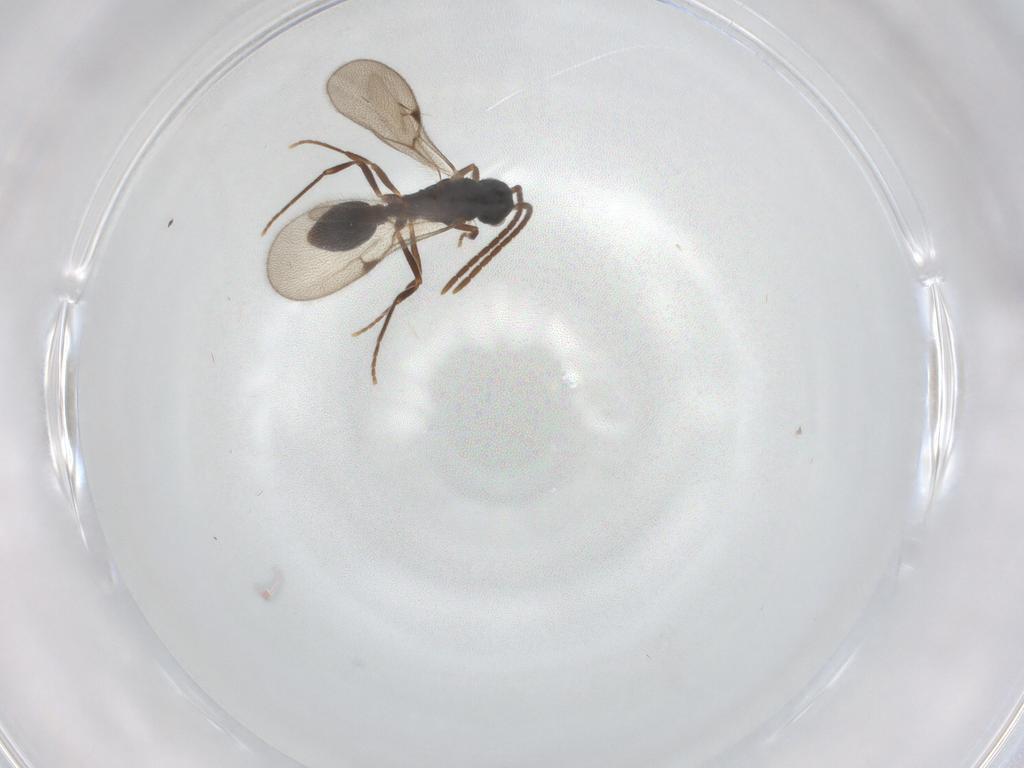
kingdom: Animalia
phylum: Arthropoda
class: Insecta
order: Hymenoptera
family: Formicidae
